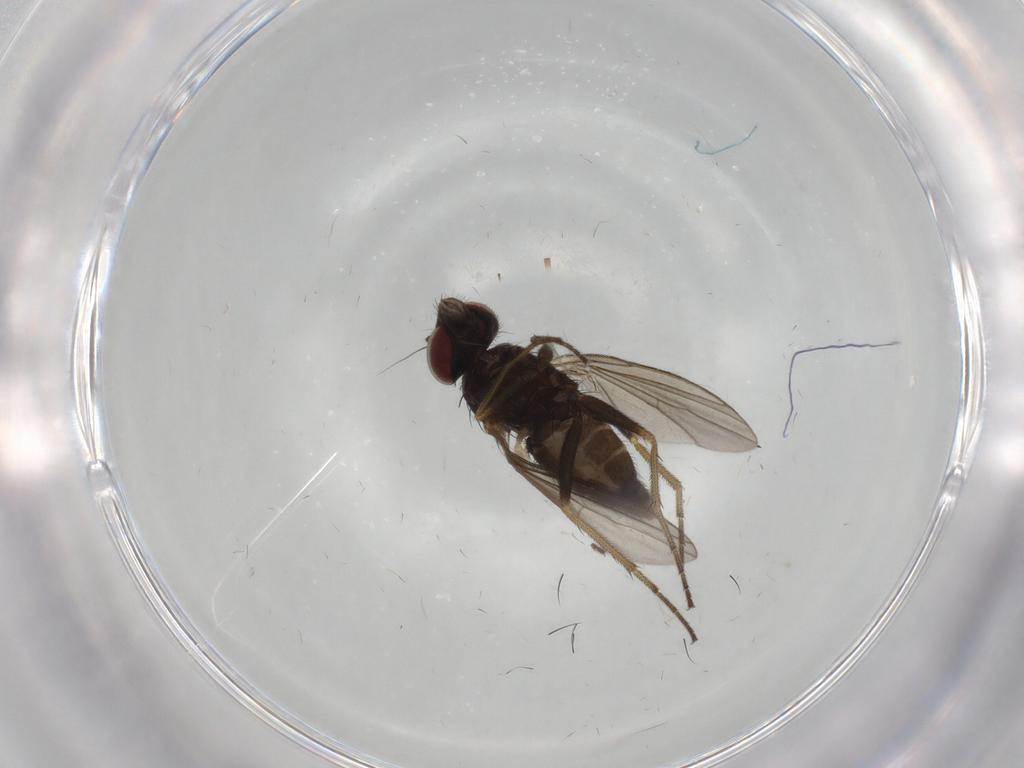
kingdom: Animalia
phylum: Arthropoda
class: Insecta
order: Diptera
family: Dolichopodidae
